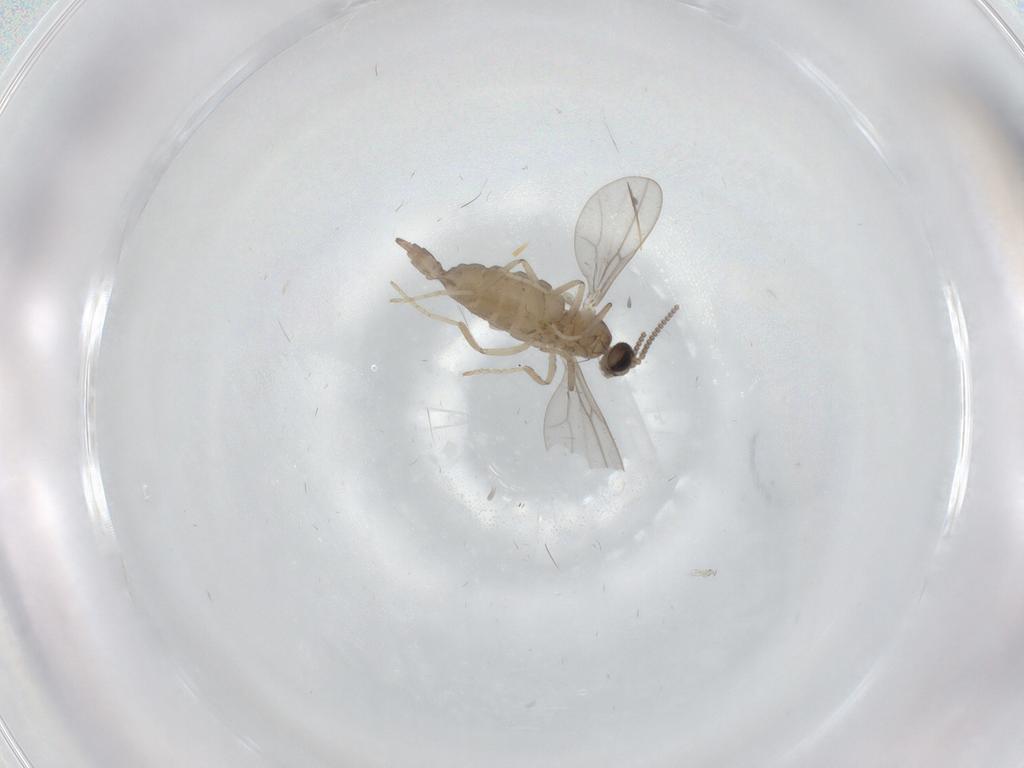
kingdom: Animalia
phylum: Arthropoda
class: Insecta
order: Diptera
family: Cecidomyiidae
